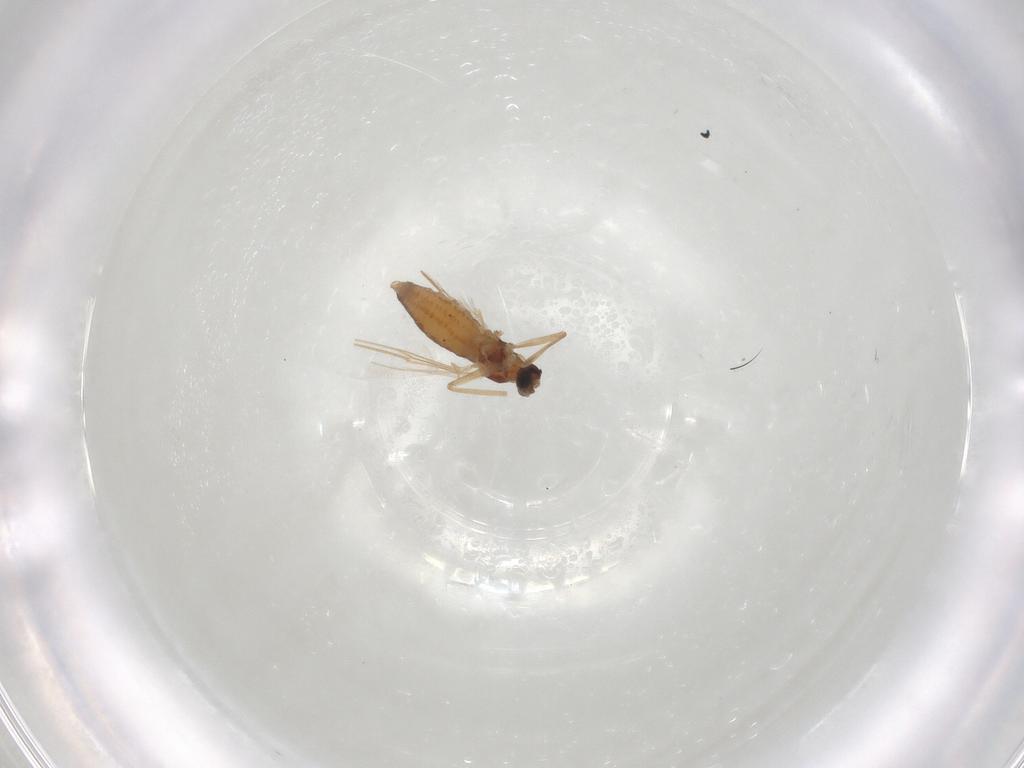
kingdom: Animalia
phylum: Arthropoda
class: Insecta
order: Diptera
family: Cecidomyiidae
